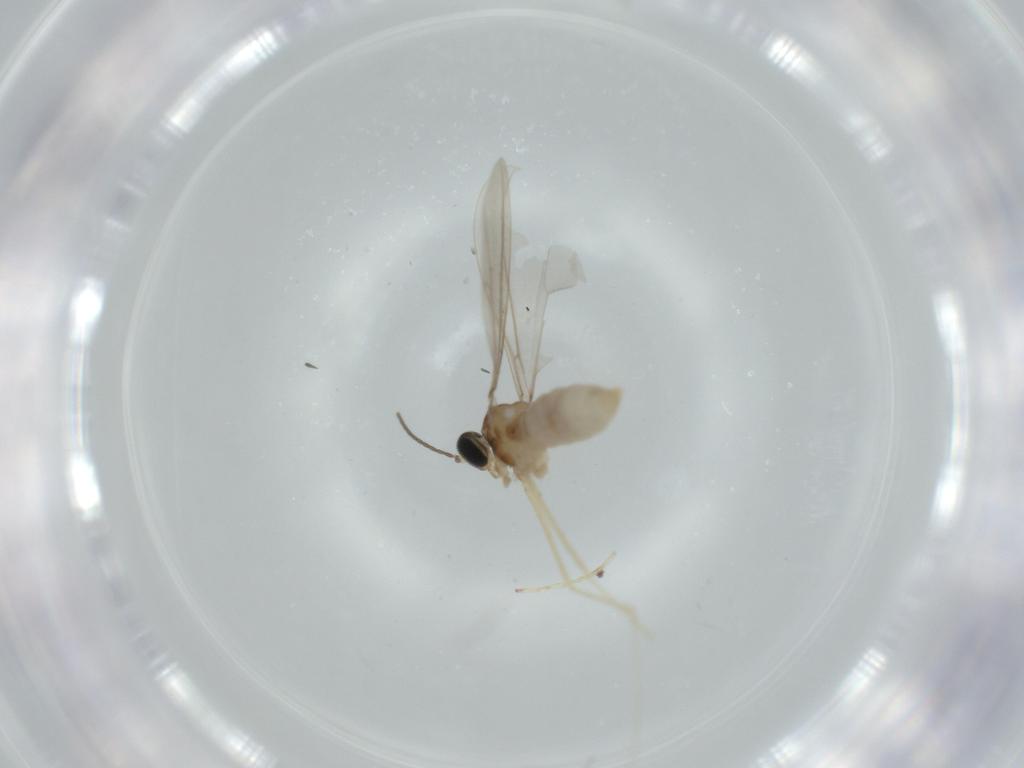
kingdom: Animalia
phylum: Arthropoda
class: Insecta
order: Diptera
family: Cecidomyiidae
